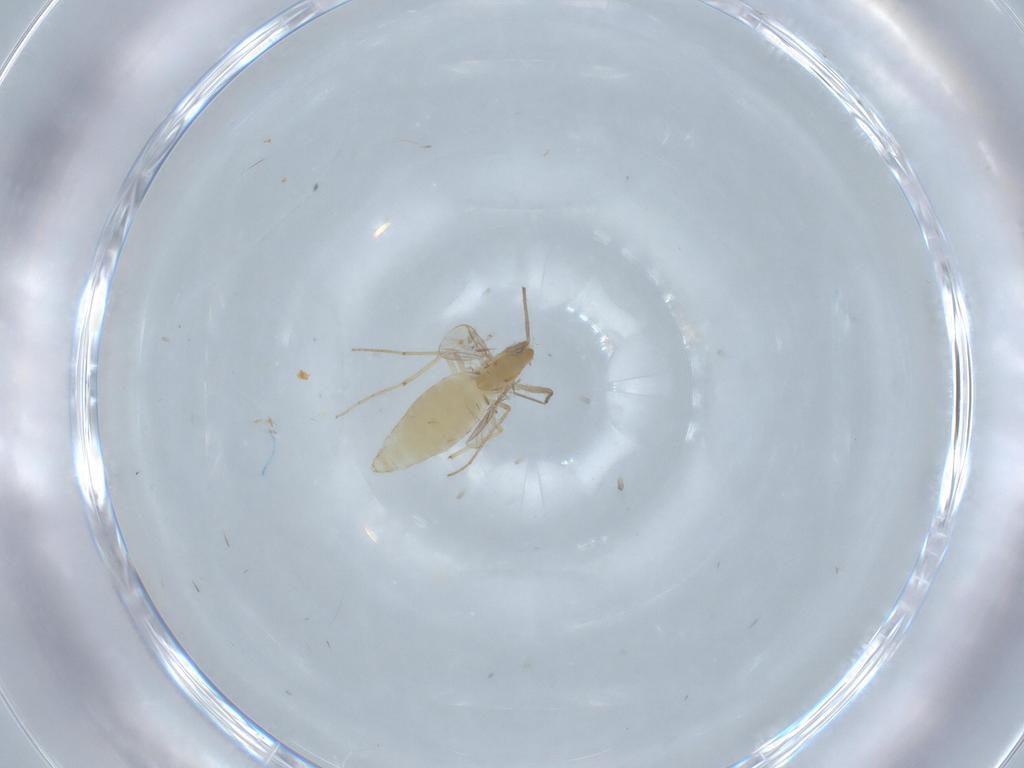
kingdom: Animalia
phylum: Arthropoda
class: Insecta
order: Diptera
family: Chironomidae
